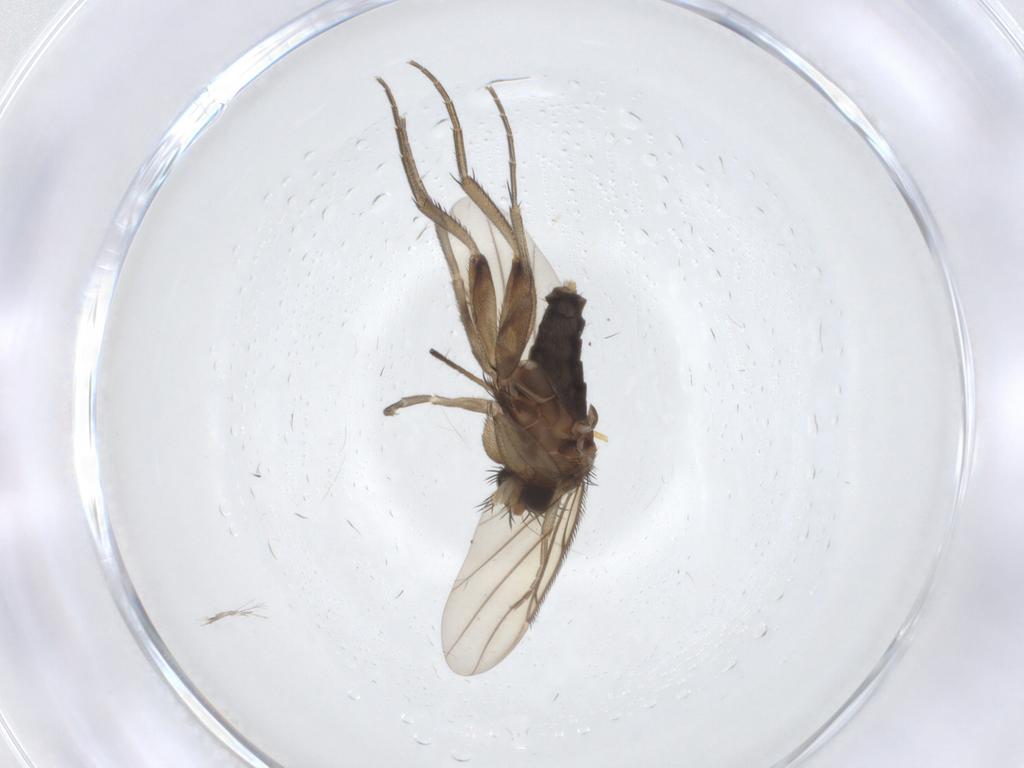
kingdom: Animalia
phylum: Arthropoda
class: Insecta
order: Diptera
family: Phoridae
